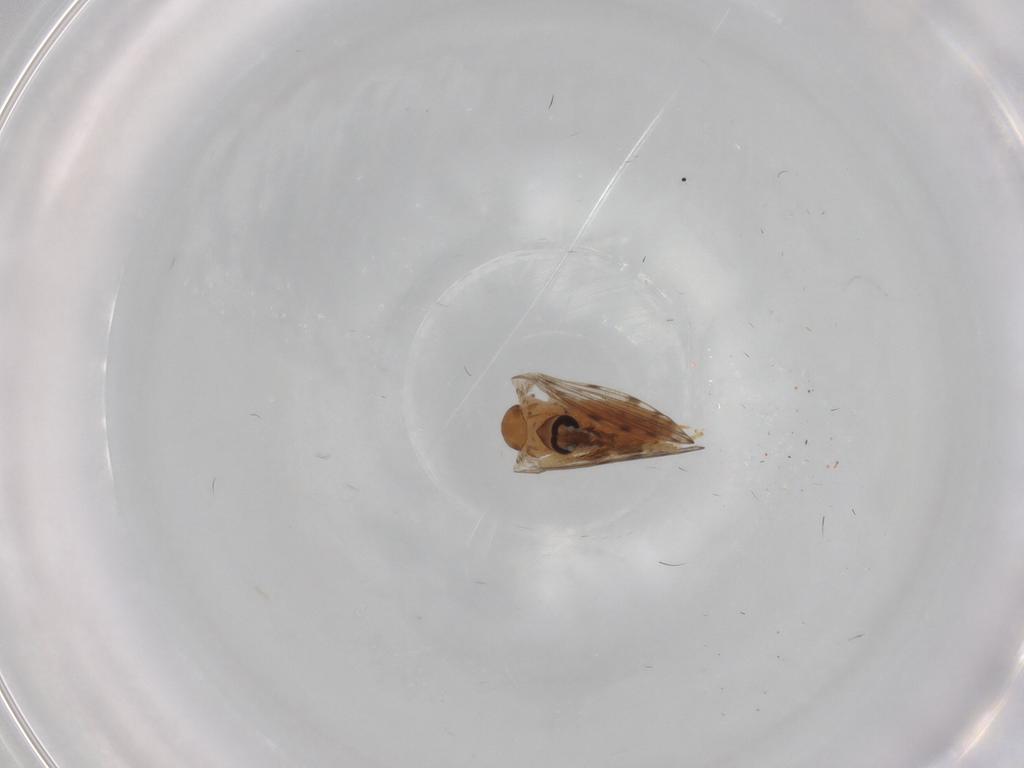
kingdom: Animalia
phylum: Arthropoda
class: Insecta
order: Diptera
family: Psychodidae
